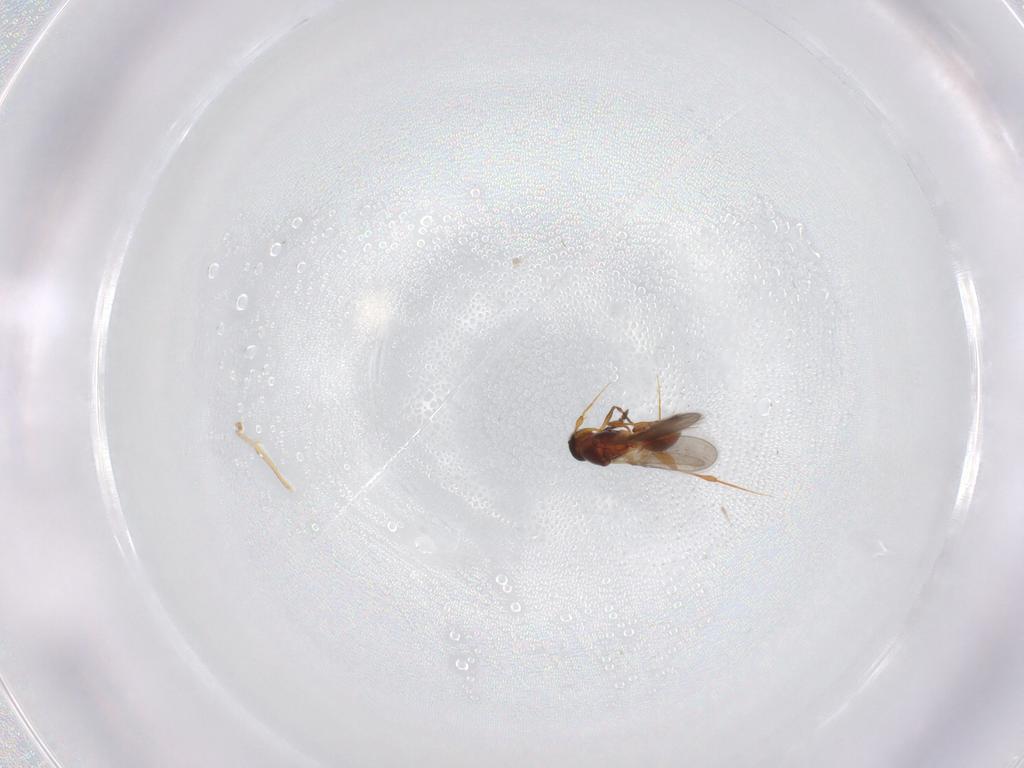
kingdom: Animalia
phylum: Arthropoda
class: Insecta
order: Hymenoptera
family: Platygastridae
